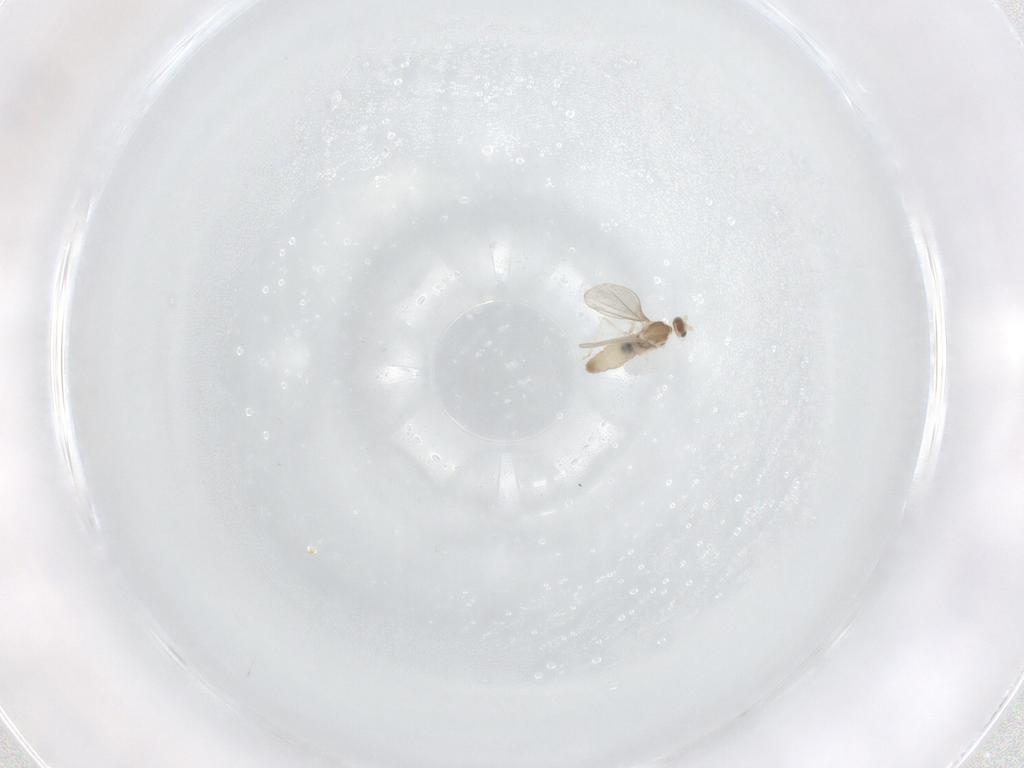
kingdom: Animalia
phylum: Arthropoda
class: Insecta
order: Diptera
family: Cecidomyiidae
